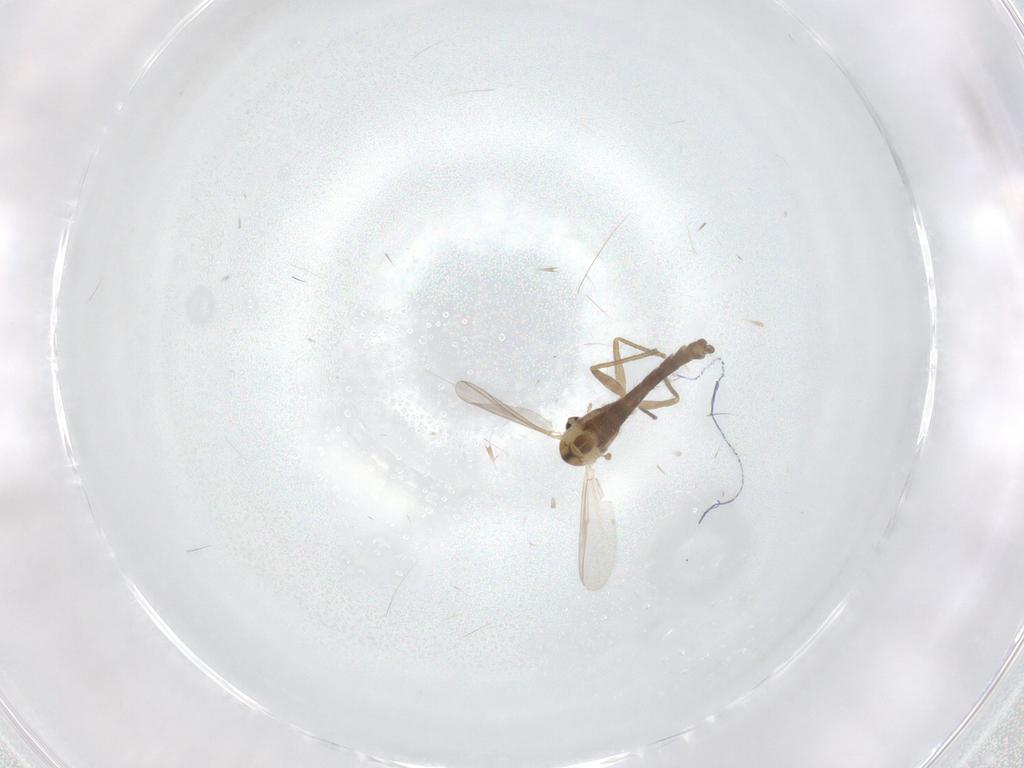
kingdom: Animalia
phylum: Arthropoda
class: Insecta
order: Diptera
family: Chironomidae
